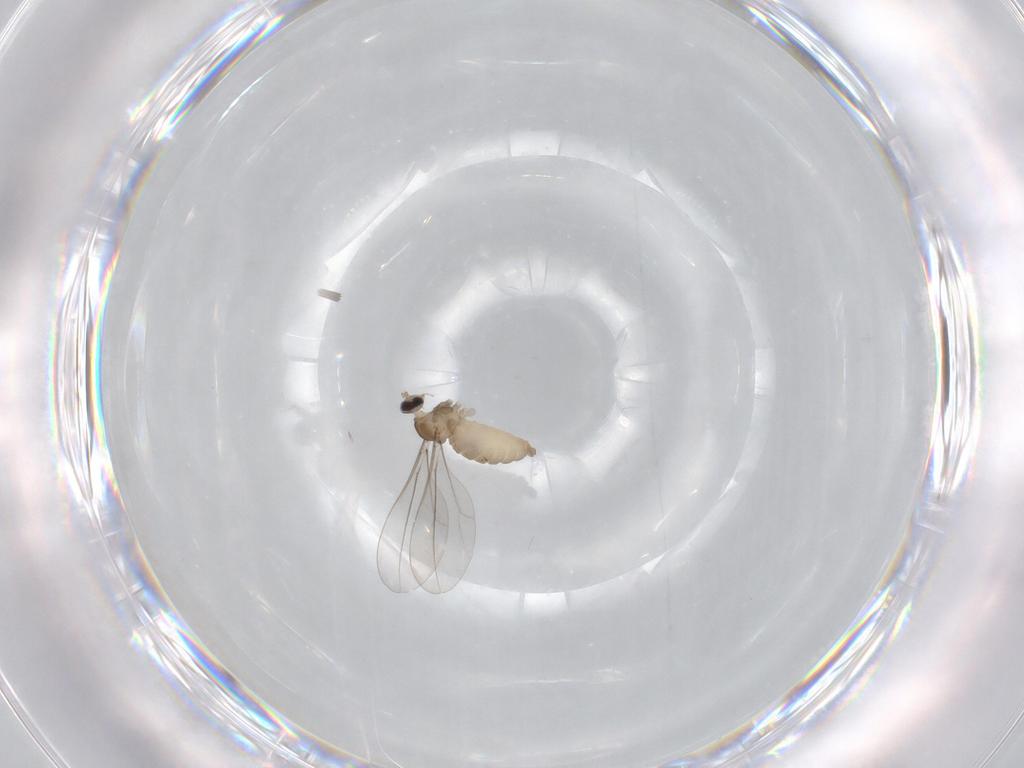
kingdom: Animalia
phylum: Arthropoda
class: Insecta
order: Diptera
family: Cecidomyiidae
